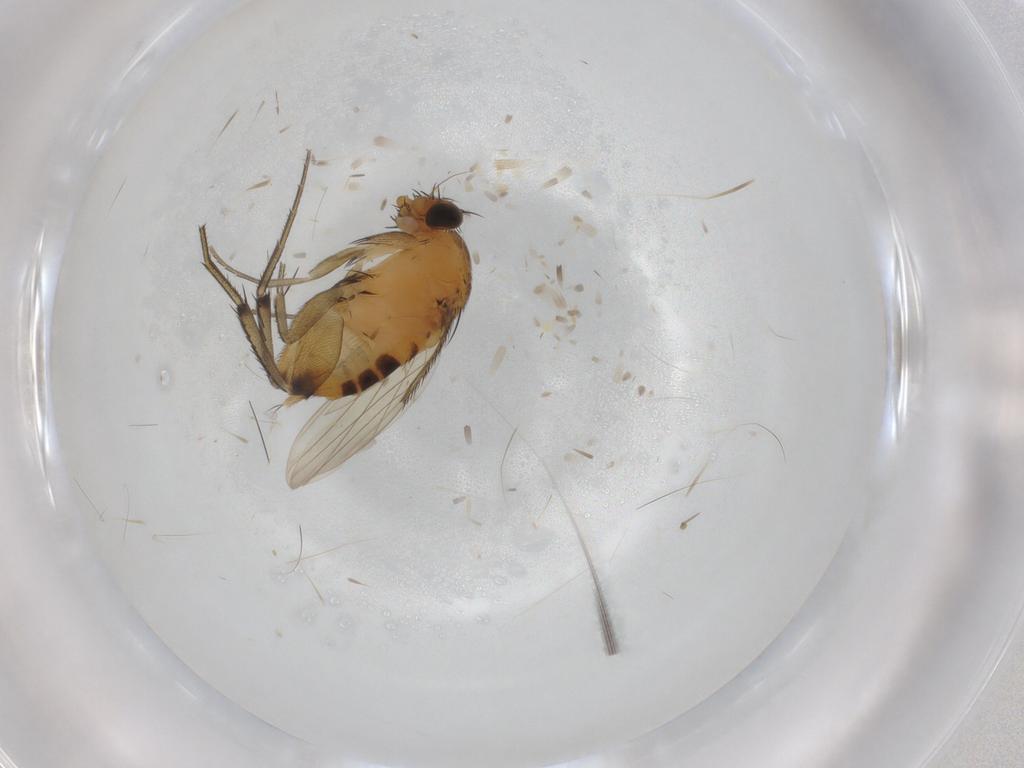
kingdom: Animalia
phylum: Arthropoda
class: Insecta
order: Diptera
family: Phoridae
